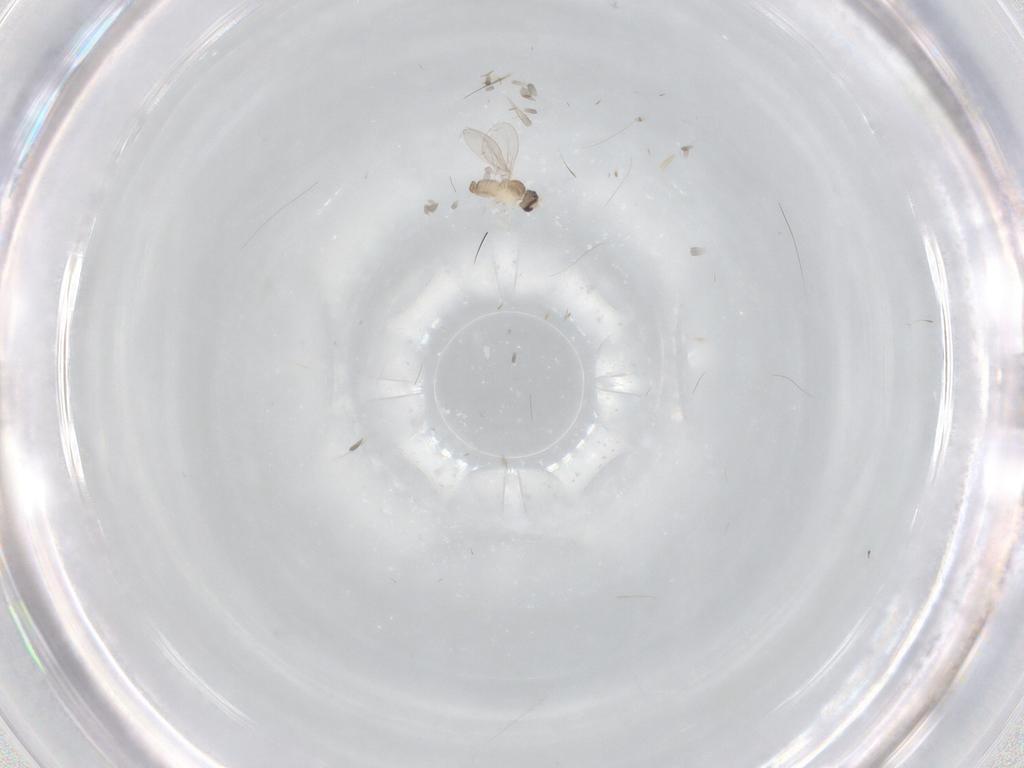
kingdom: Animalia
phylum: Arthropoda
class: Insecta
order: Diptera
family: Cecidomyiidae
